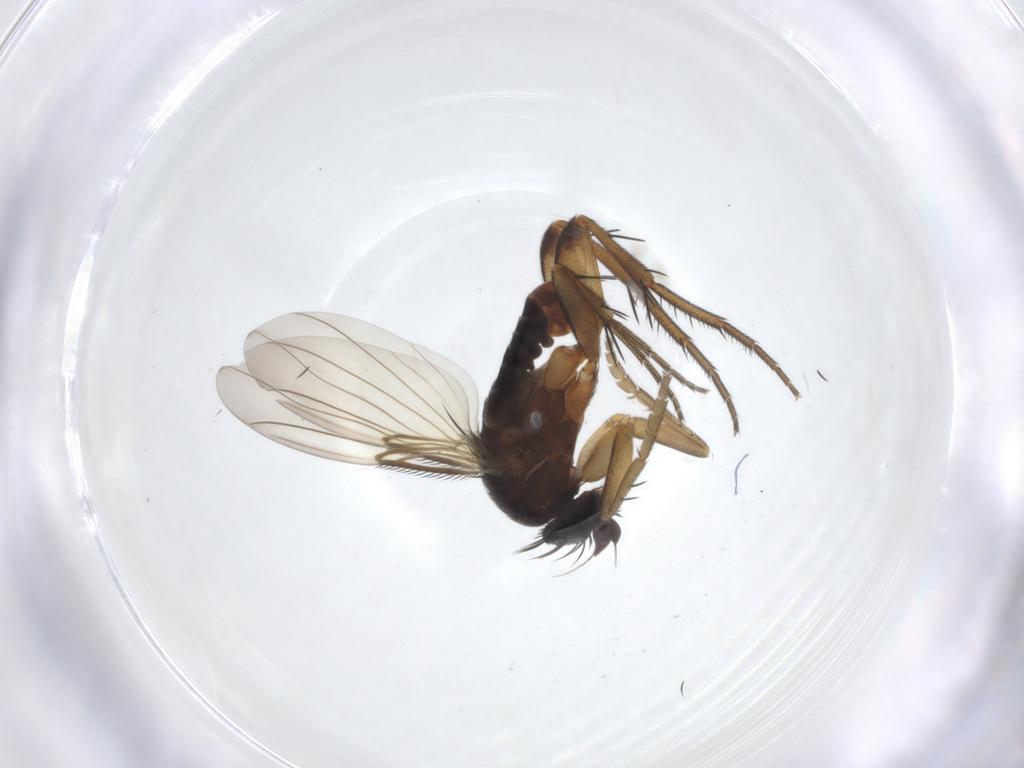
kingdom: Animalia
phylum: Arthropoda
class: Insecta
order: Diptera
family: Phoridae
